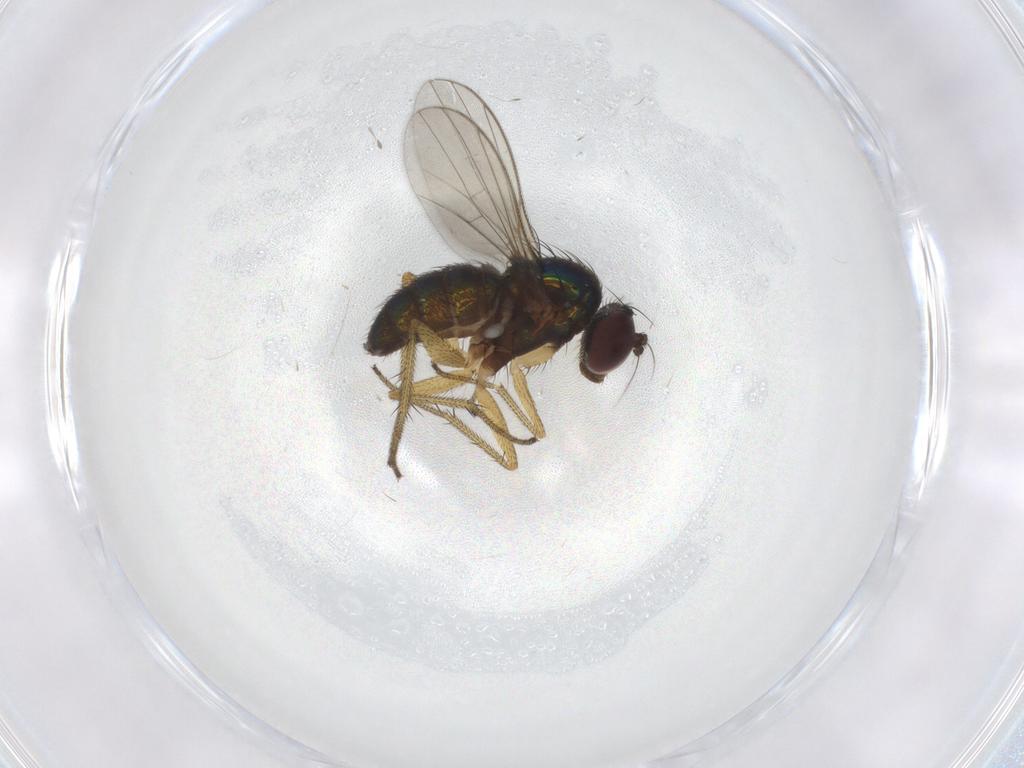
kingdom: Animalia
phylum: Arthropoda
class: Insecta
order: Diptera
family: Dolichopodidae
